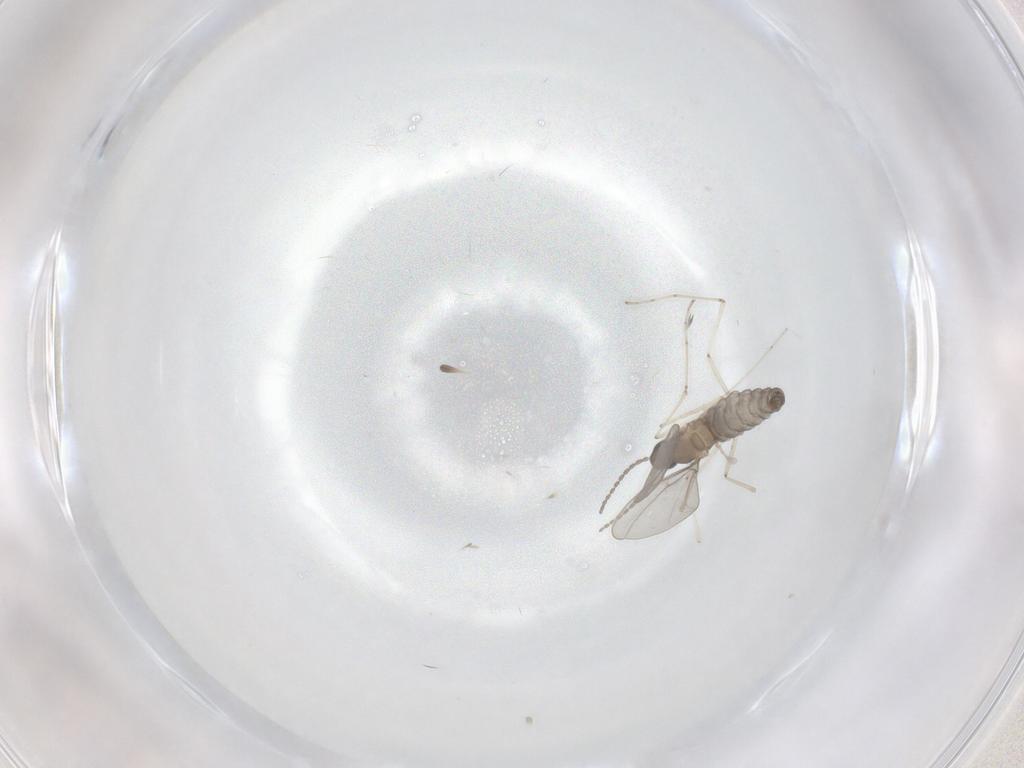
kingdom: Animalia
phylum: Arthropoda
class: Insecta
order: Diptera
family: Cecidomyiidae
